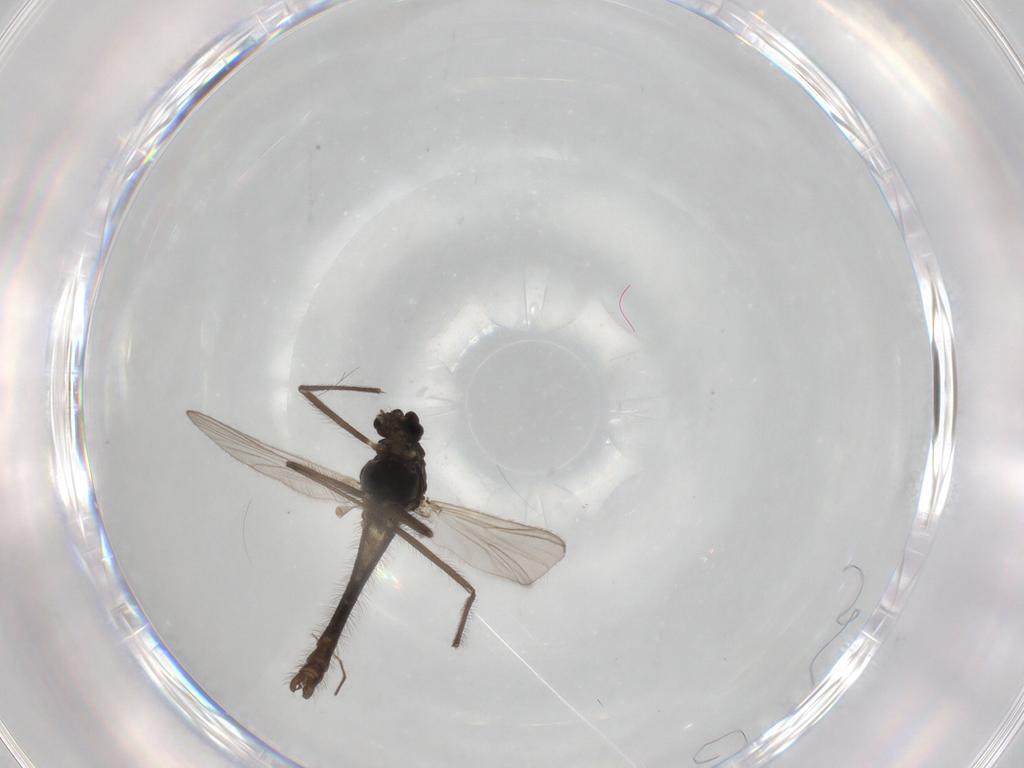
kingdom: Animalia
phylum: Arthropoda
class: Insecta
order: Diptera
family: Chironomidae
